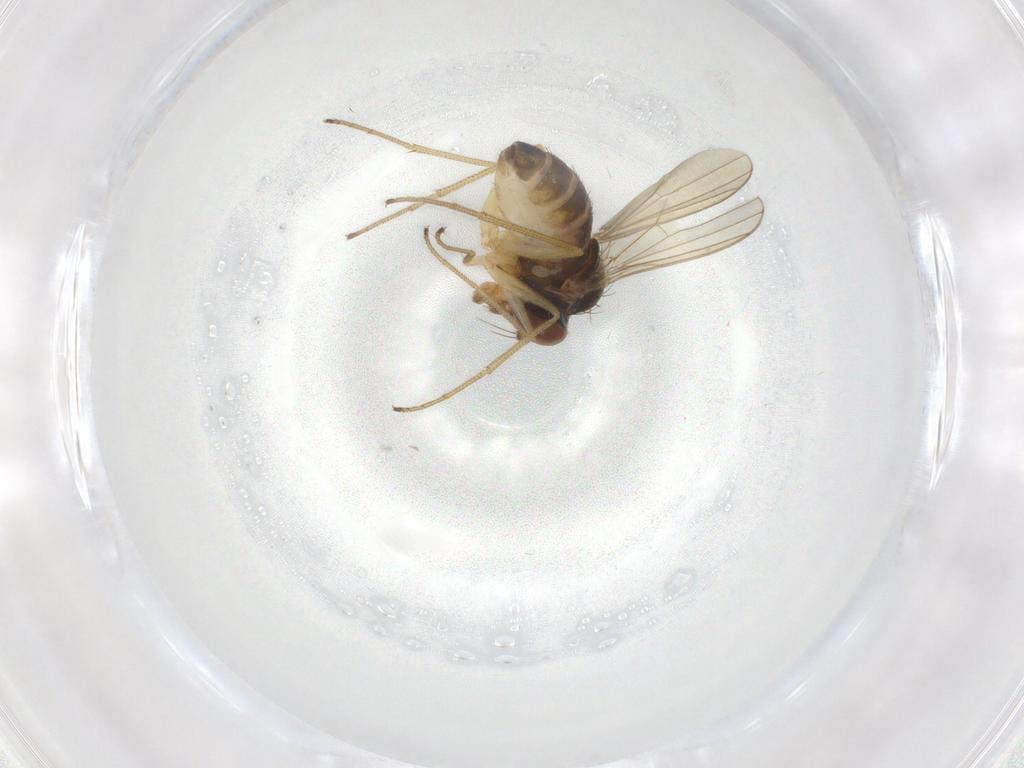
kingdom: Animalia
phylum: Arthropoda
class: Insecta
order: Diptera
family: Dolichopodidae
